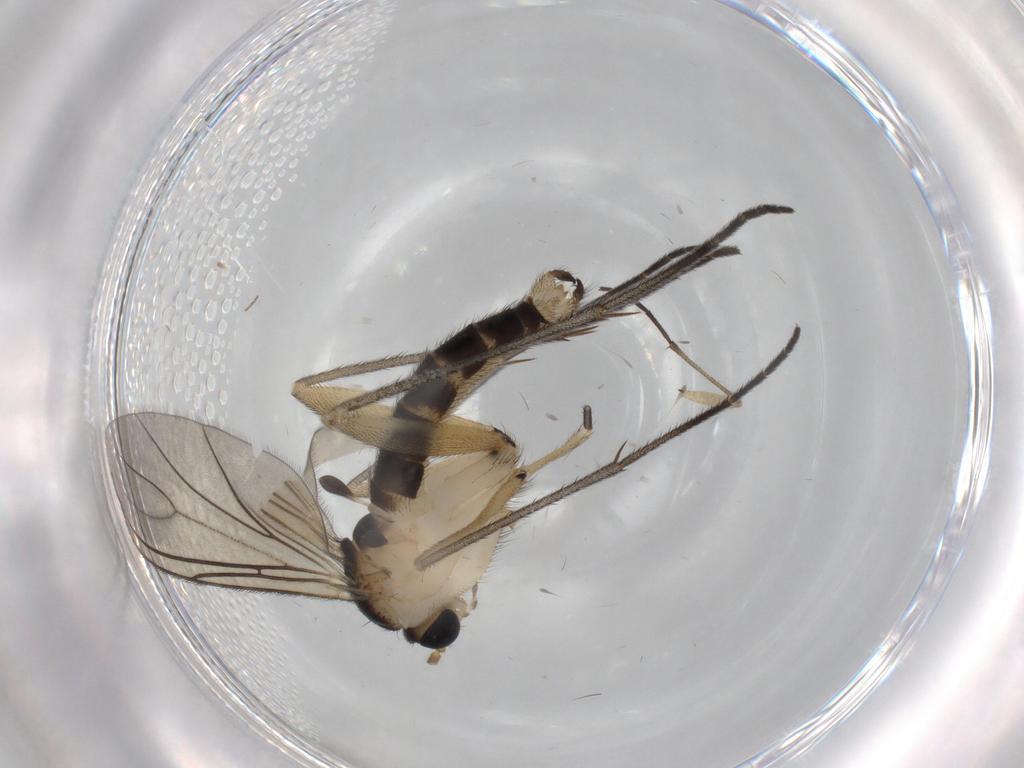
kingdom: Animalia
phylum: Arthropoda
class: Insecta
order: Diptera
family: Sciaridae
